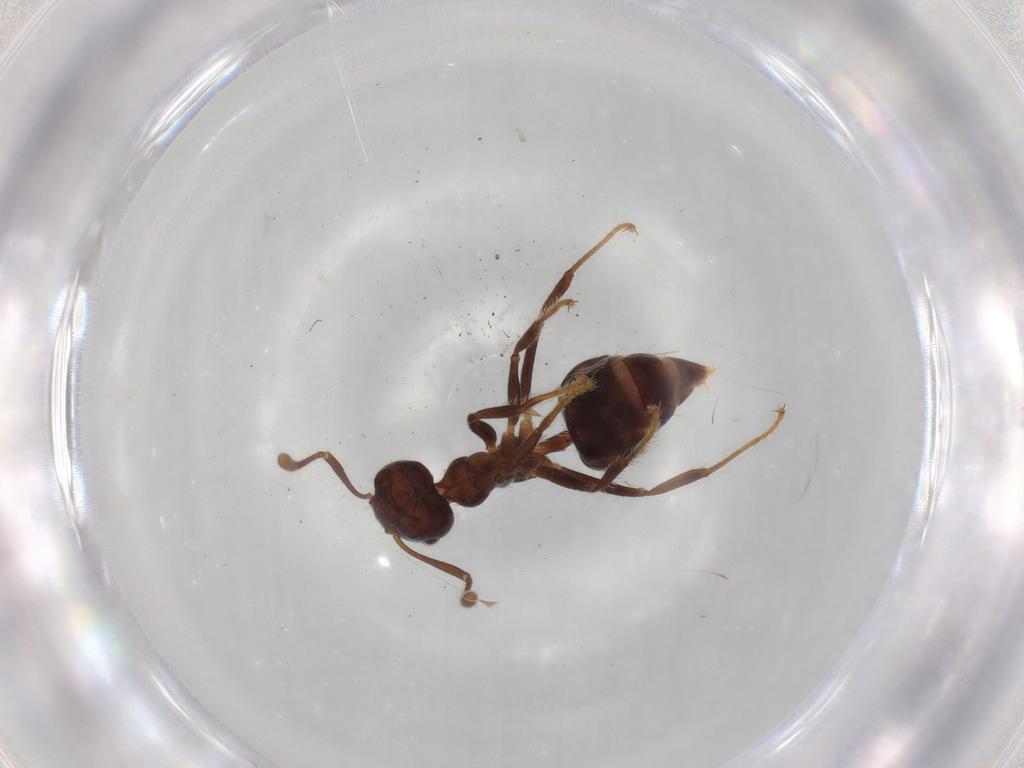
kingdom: Animalia
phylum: Arthropoda
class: Insecta
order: Hymenoptera
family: Formicidae
